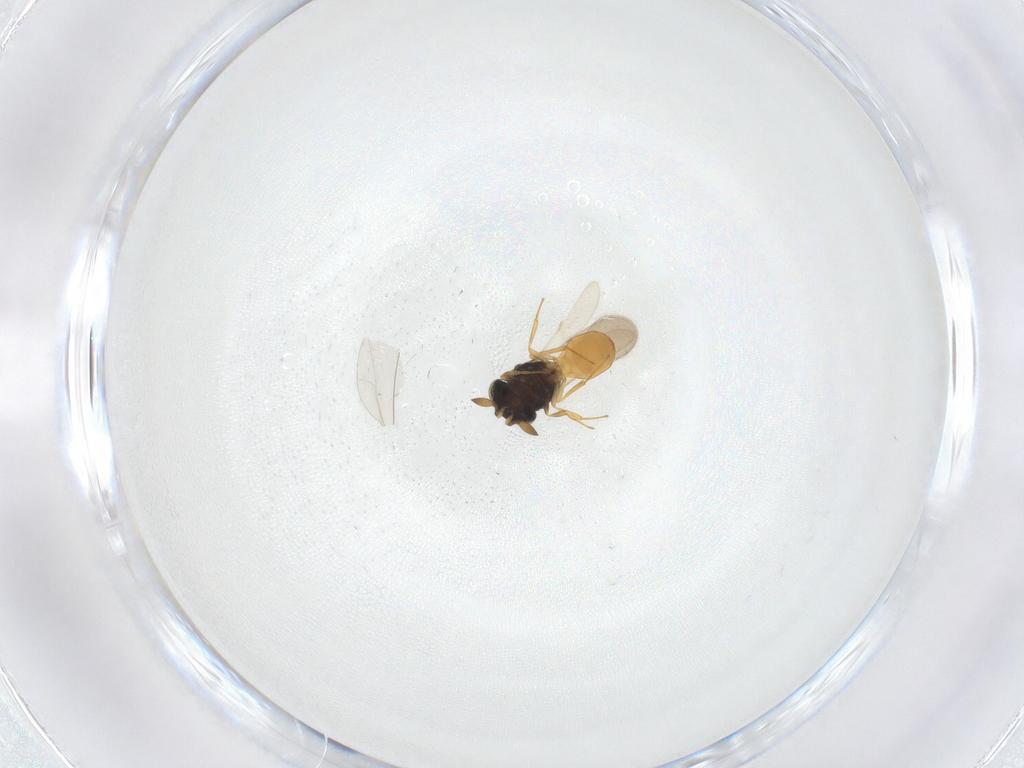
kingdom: Animalia
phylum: Arthropoda
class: Insecta
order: Hymenoptera
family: Scelionidae
